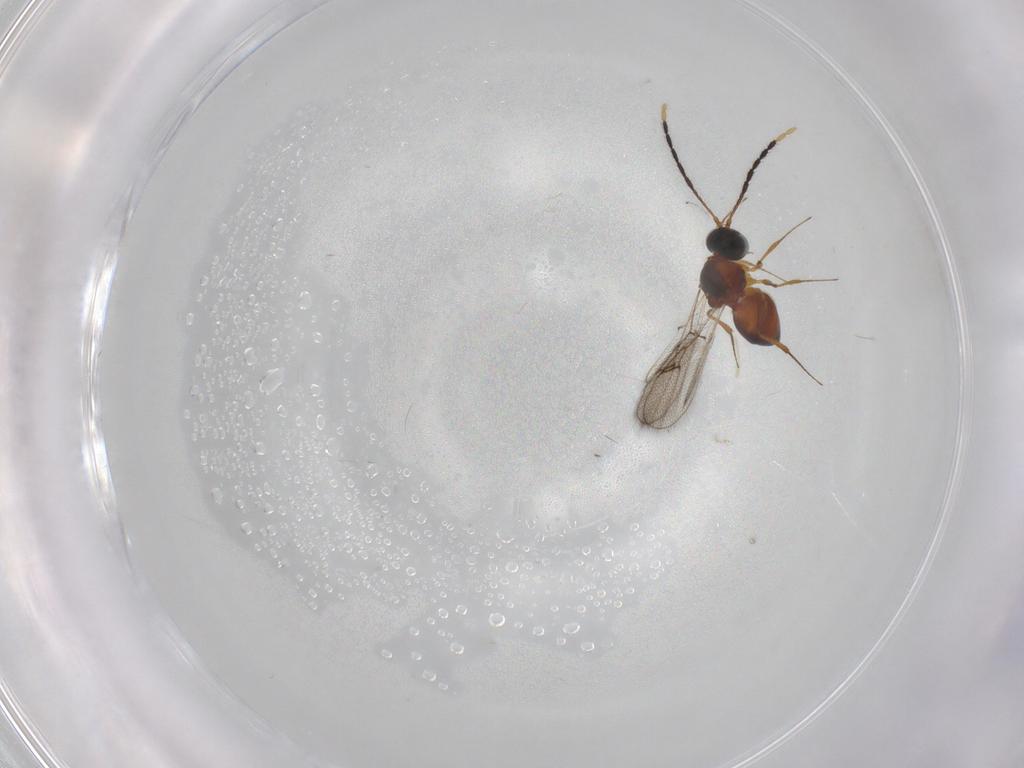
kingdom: Animalia
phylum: Arthropoda
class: Insecta
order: Hymenoptera
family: Figitidae
